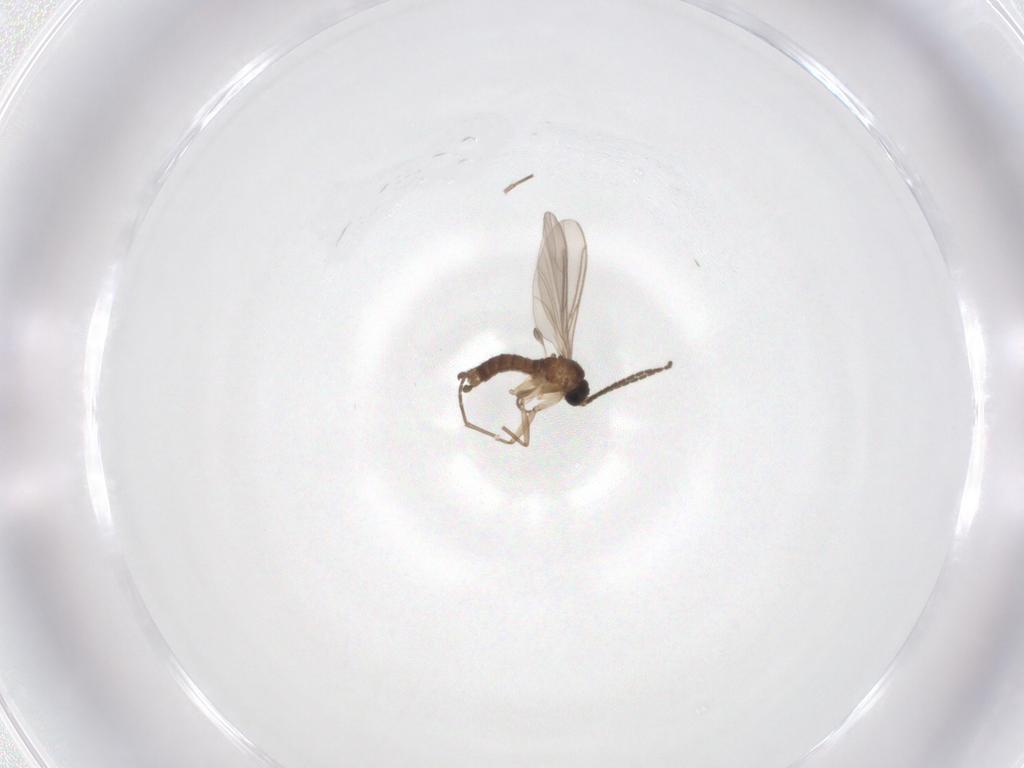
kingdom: Animalia
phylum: Arthropoda
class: Insecta
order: Diptera
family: Sciaridae
